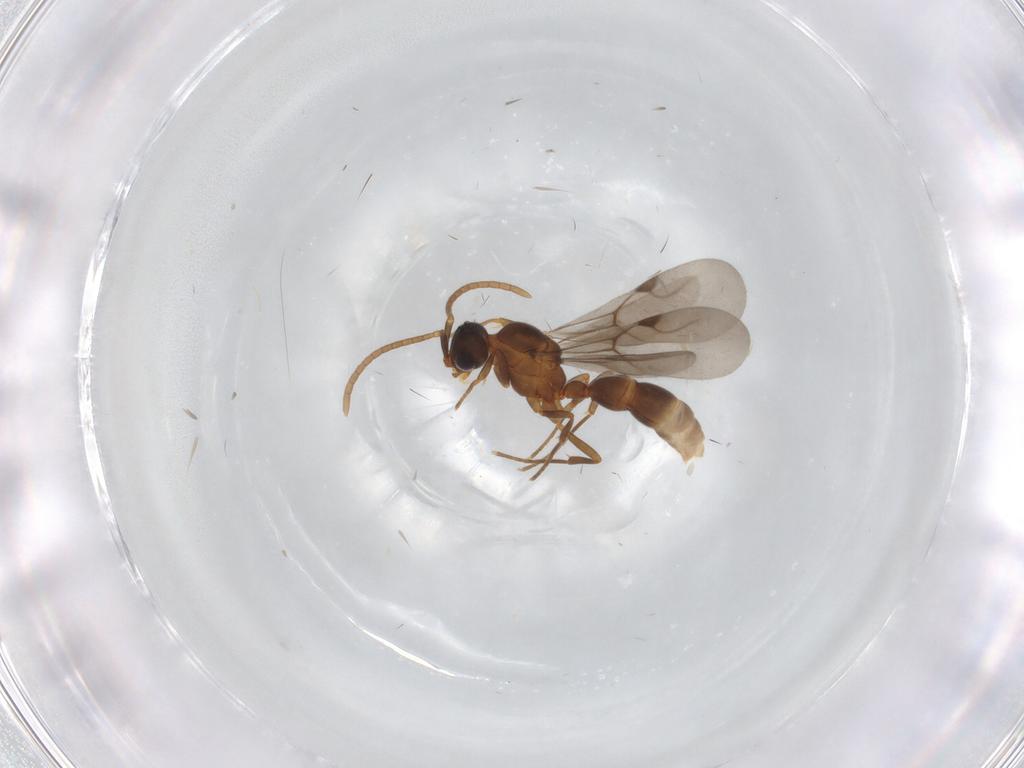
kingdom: Animalia
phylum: Arthropoda
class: Insecta
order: Hymenoptera
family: Formicidae
